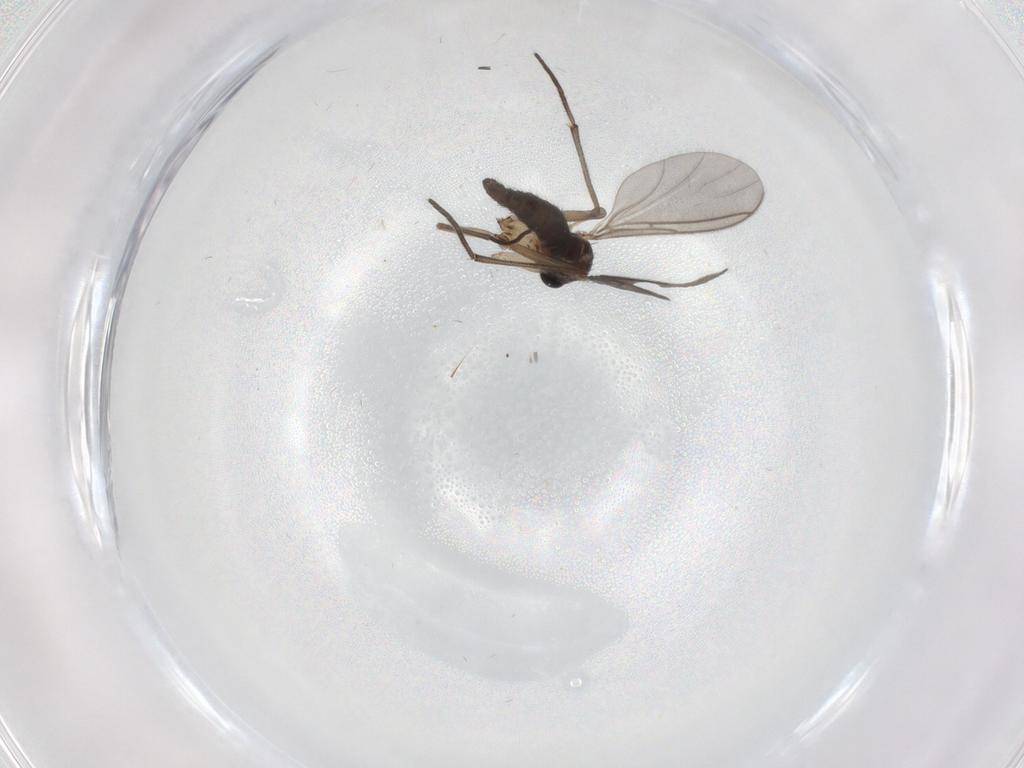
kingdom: Animalia
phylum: Arthropoda
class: Insecta
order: Diptera
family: Sciaridae
